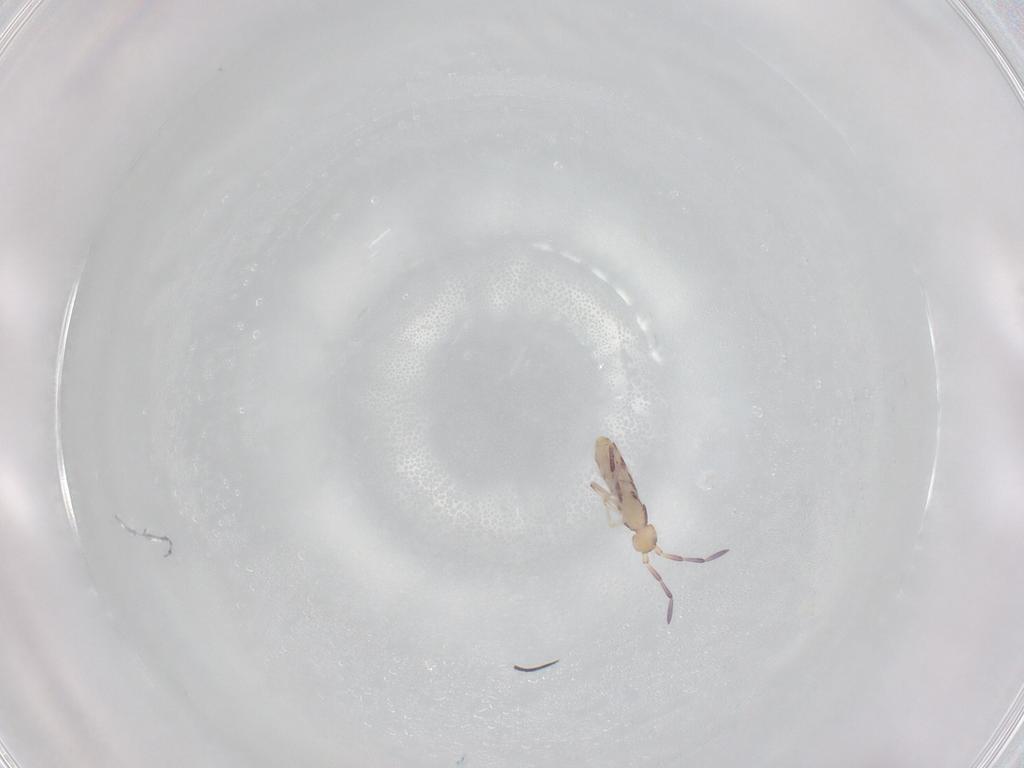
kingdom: Animalia
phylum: Arthropoda
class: Collembola
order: Entomobryomorpha
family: Entomobryidae
